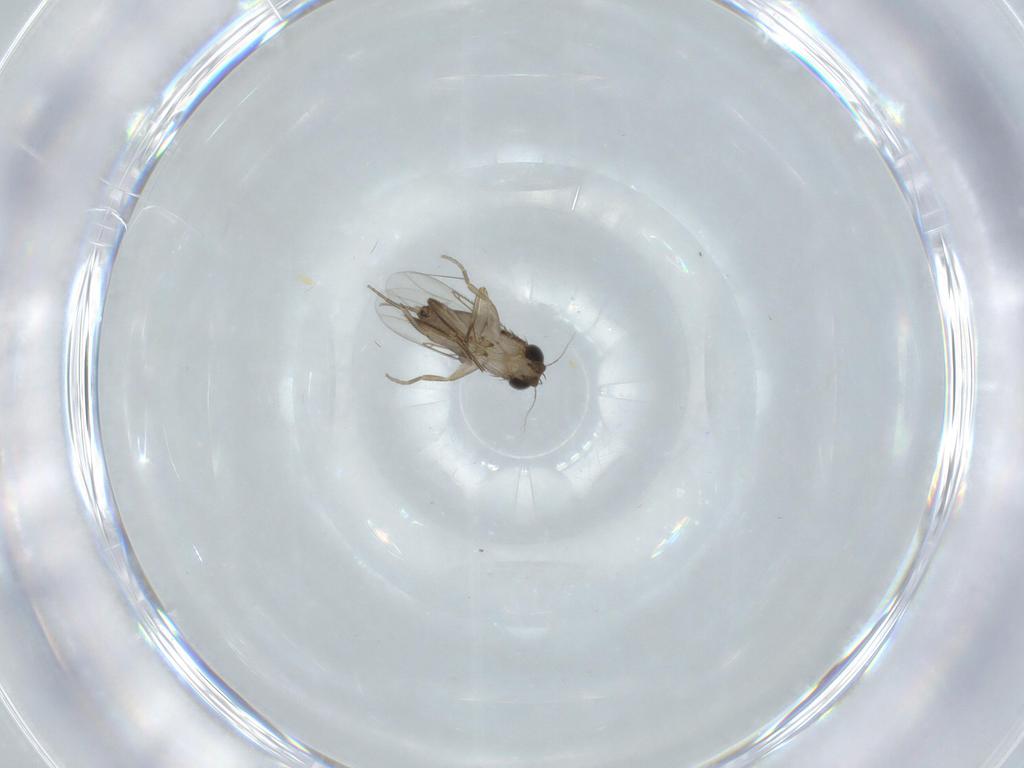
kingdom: Animalia
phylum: Arthropoda
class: Insecta
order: Diptera
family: Phoridae
